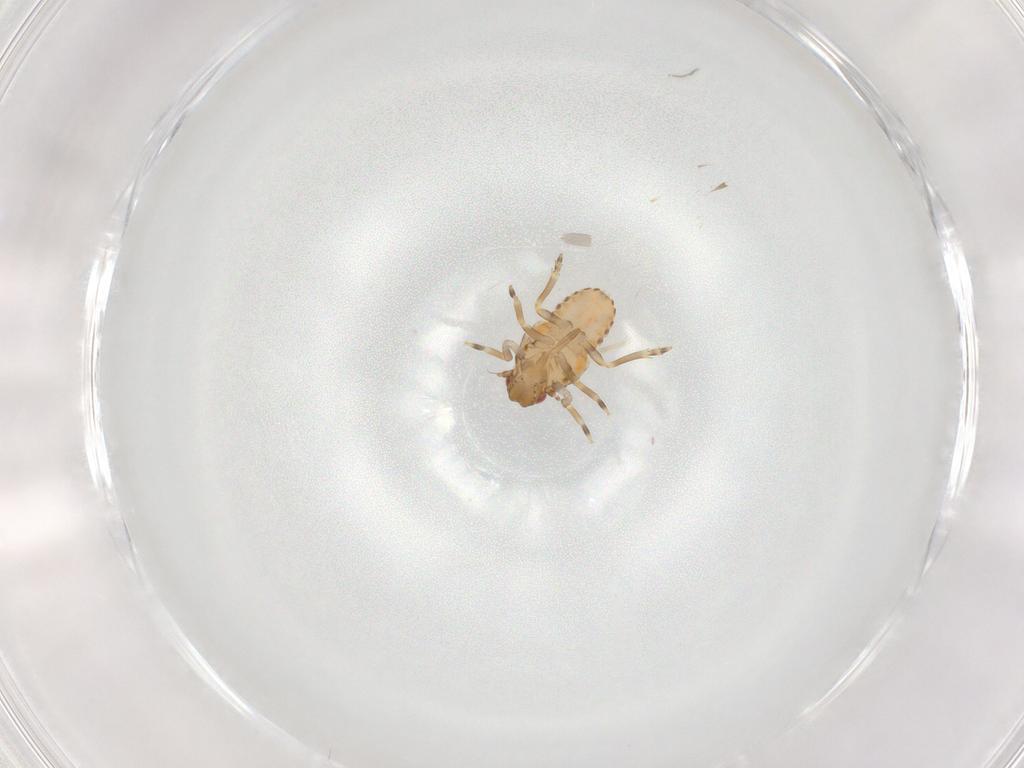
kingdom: Animalia
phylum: Arthropoda
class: Insecta
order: Hemiptera
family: Flatidae
